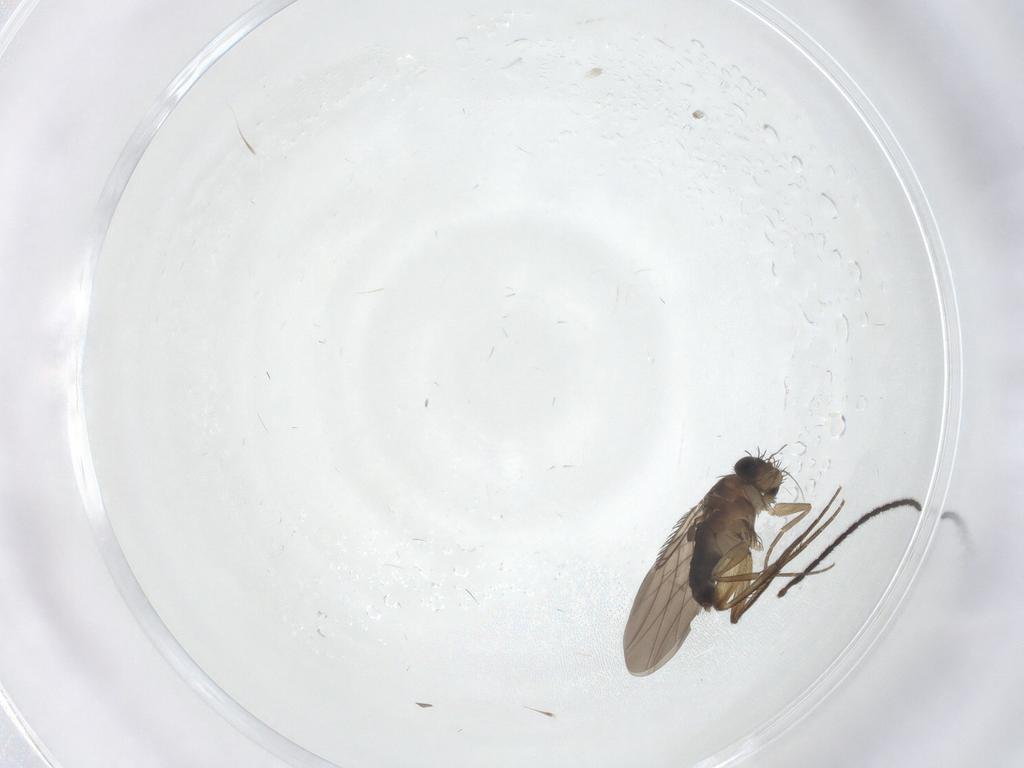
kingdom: Animalia
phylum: Arthropoda
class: Insecta
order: Diptera
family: Phoridae
